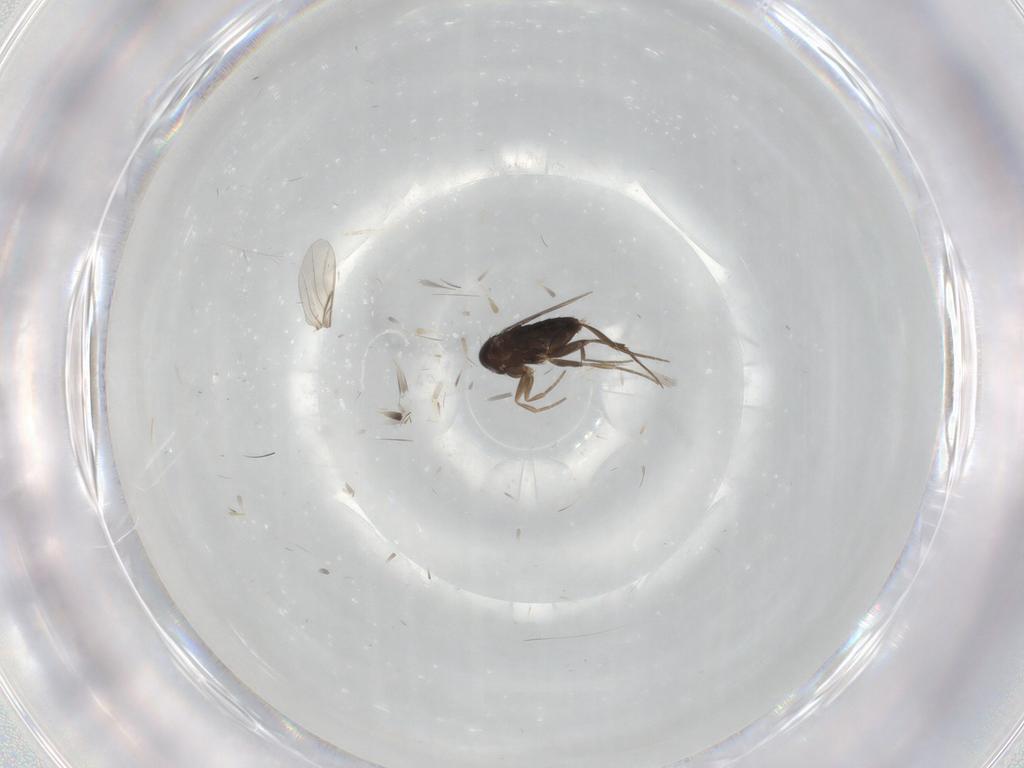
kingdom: Animalia
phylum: Arthropoda
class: Insecta
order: Diptera
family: Phoridae
